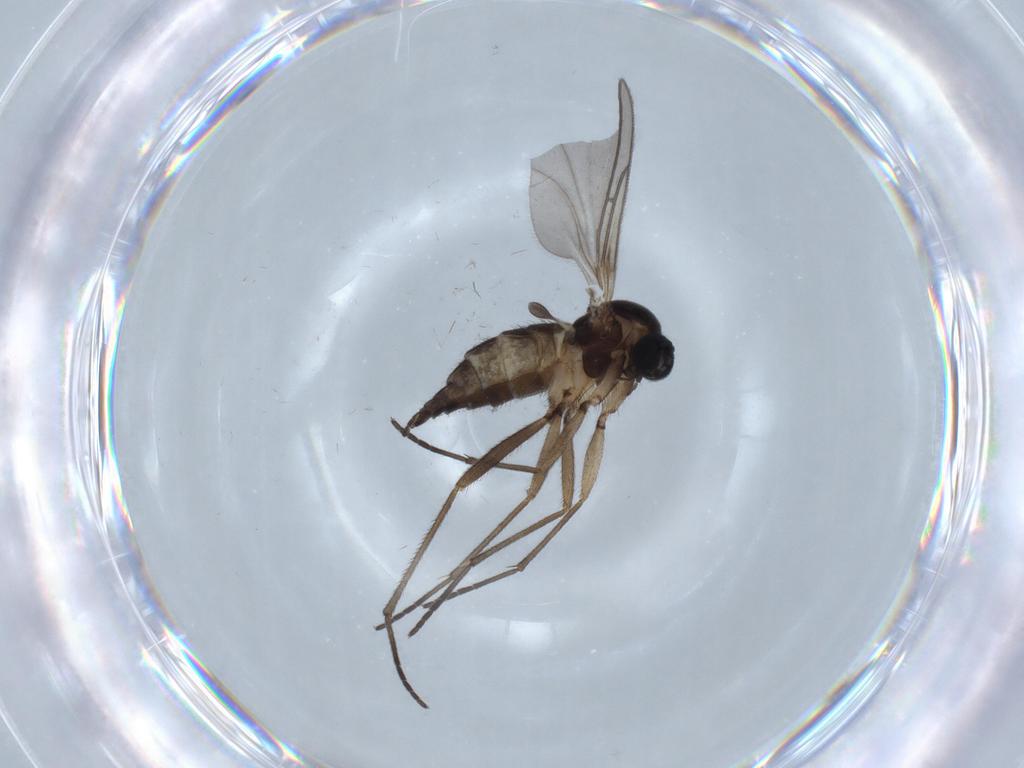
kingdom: Animalia
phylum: Arthropoda
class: Insecta
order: Diptera
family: Sciaridae
